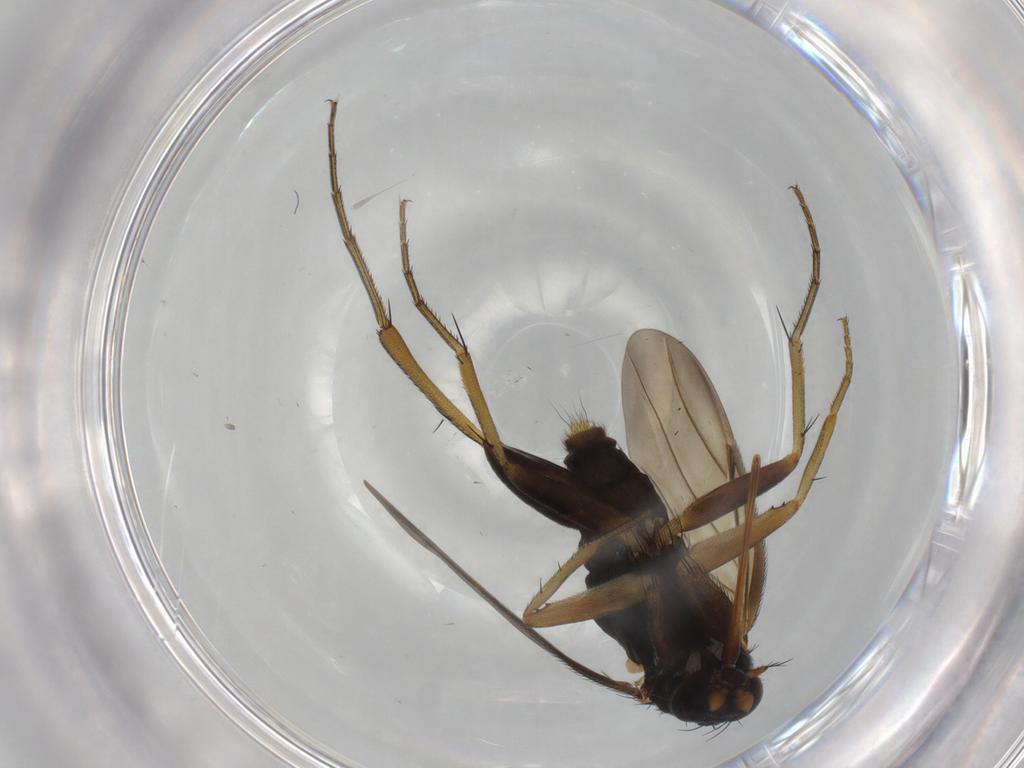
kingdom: Animalia
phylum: Arthropoda
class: Insecta
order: Diptera
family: Phoridae
